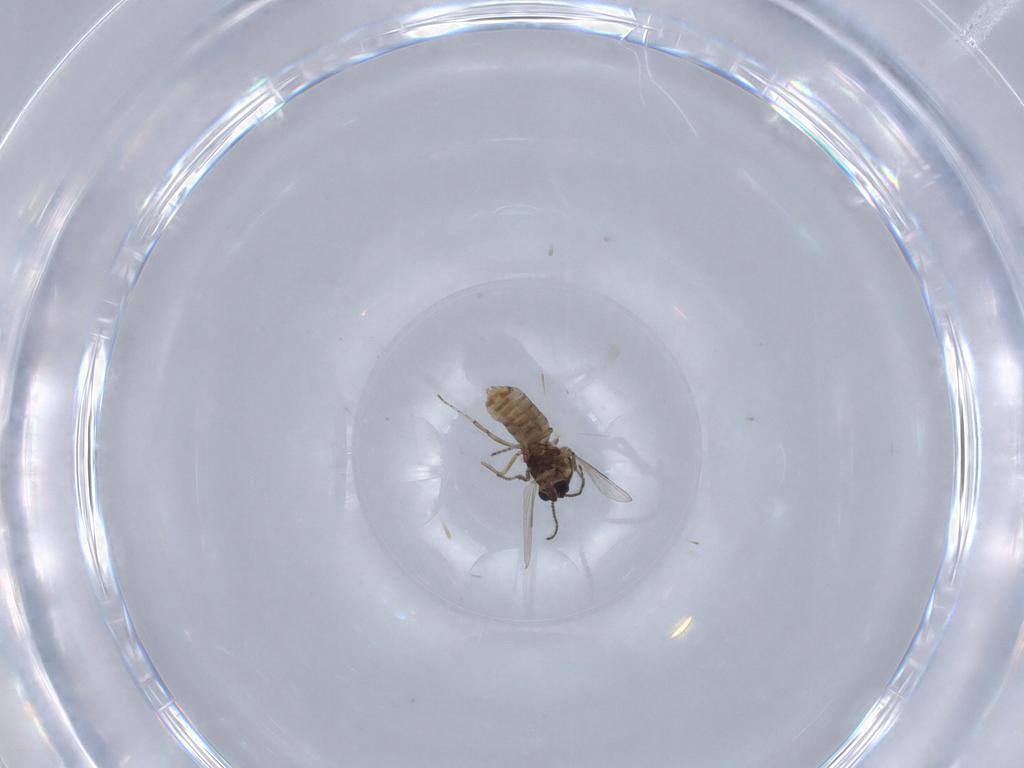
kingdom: Animalia
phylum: Arthropoda
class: Insecta
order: Diptera
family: Ceratopogonidae
